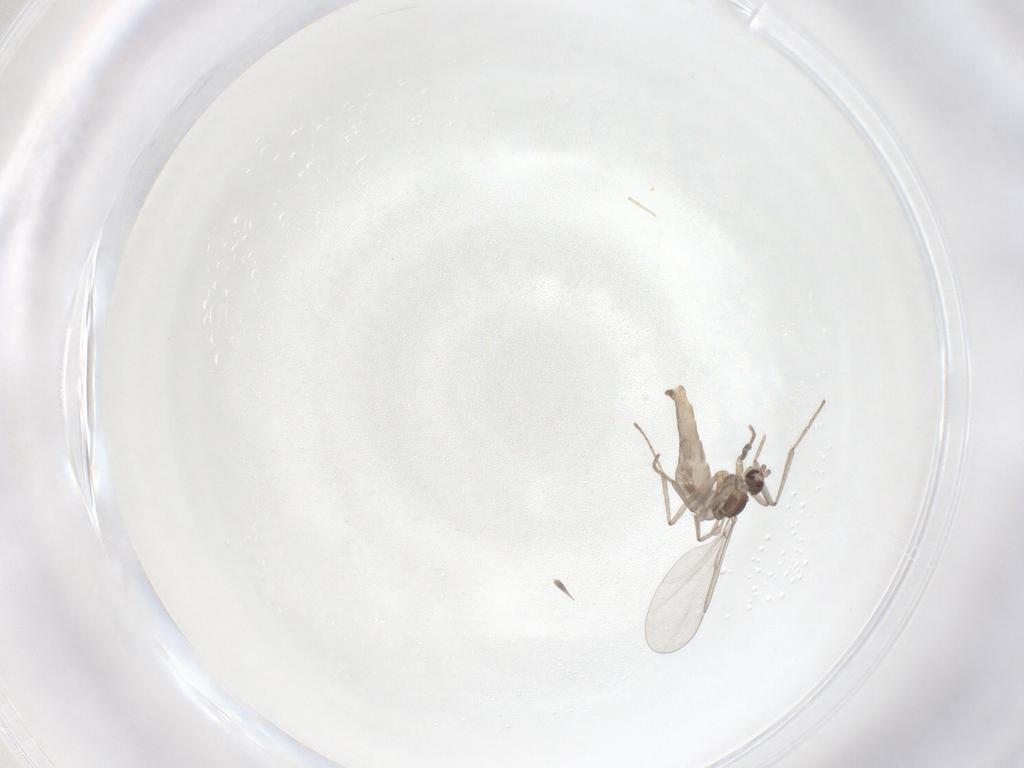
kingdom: Animalia
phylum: Arthropoda
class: Insecta
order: Diptera
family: Cecidomyiidae
